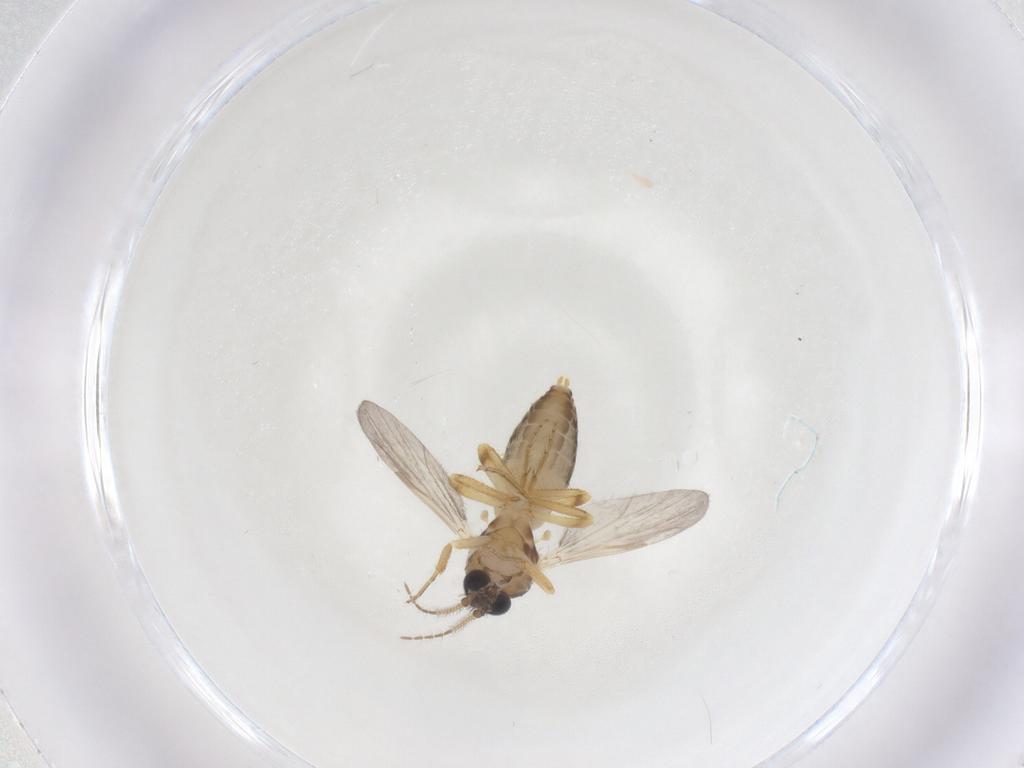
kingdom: Animalia
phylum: Arthropoda
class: Insecta
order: Diptera
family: Ceratopogonidae
